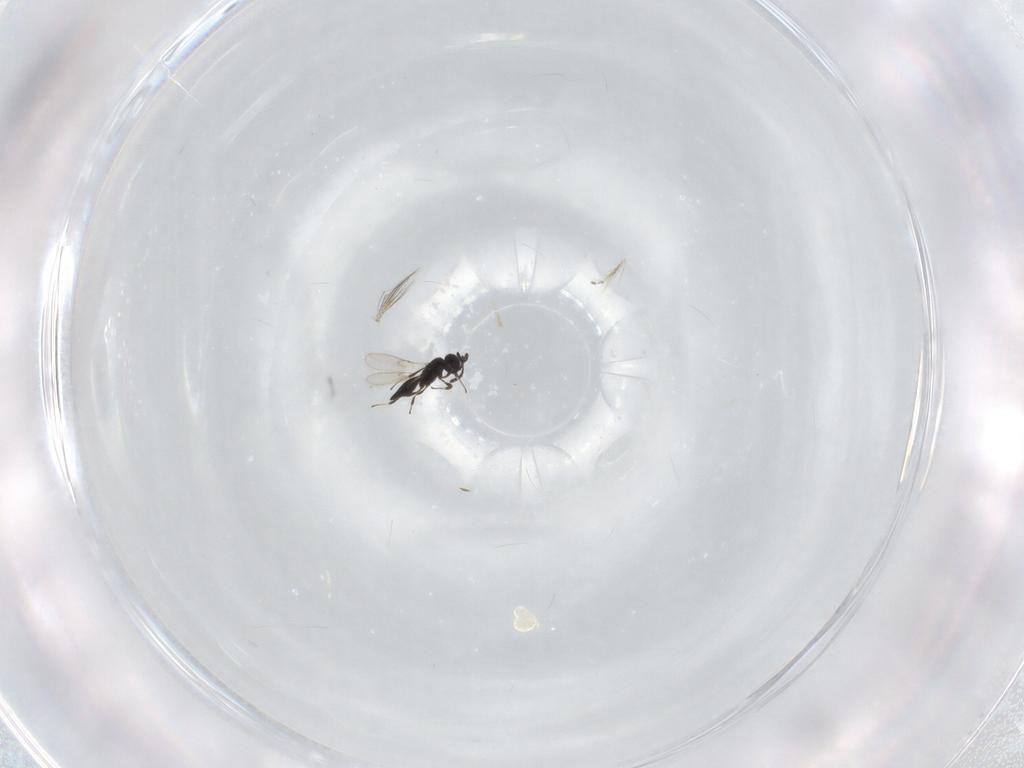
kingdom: Animalia
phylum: Arthropoda
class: Insecta
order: Hymenoptera
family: Scelionidae
